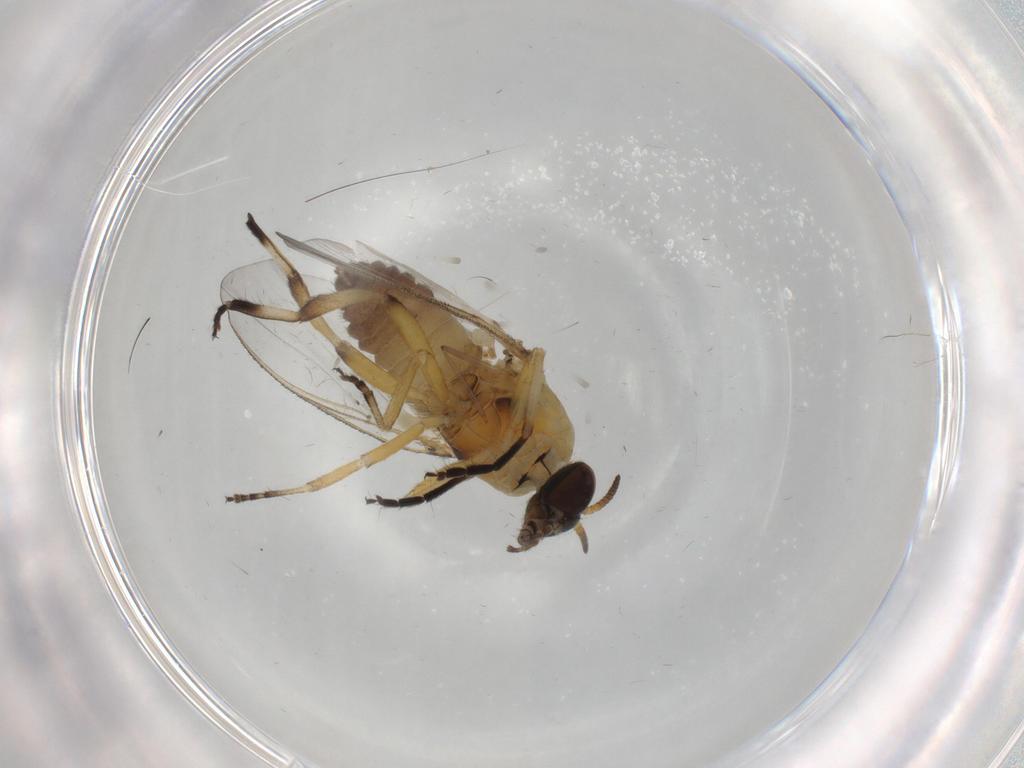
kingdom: Animalia
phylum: Arthropoda
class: Insecta
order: Coleoptera
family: Tenebrionidae
